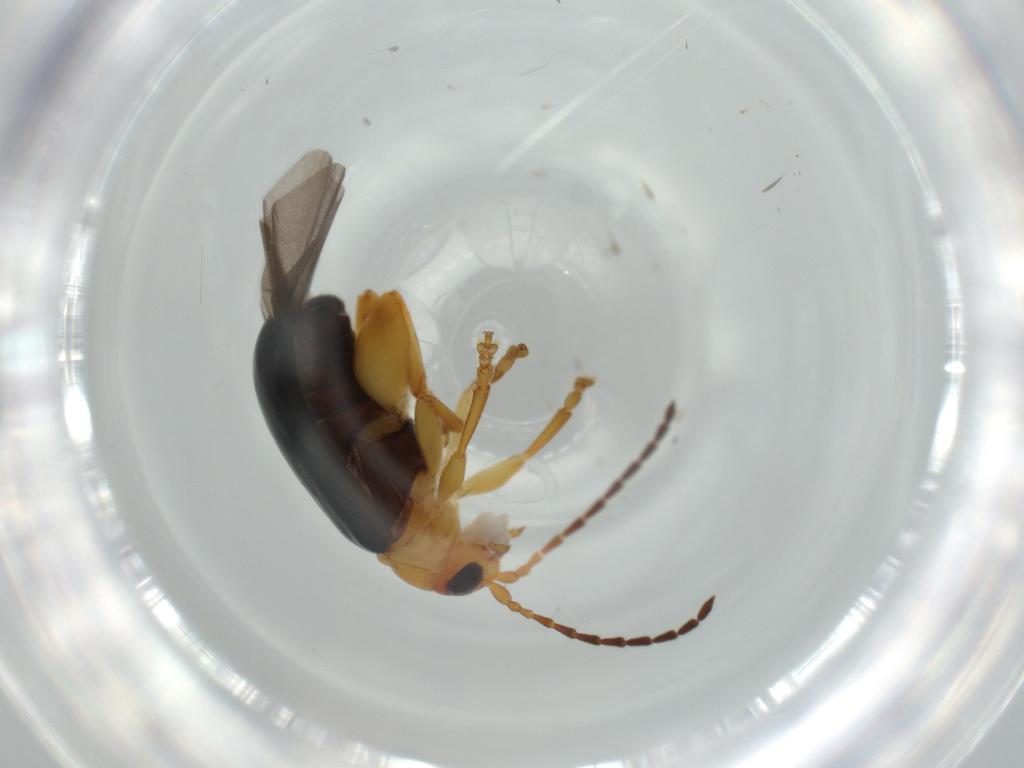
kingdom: Animalia
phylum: Arthropoda
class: Insecta
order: Coleoptera
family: Chrysomelidae
